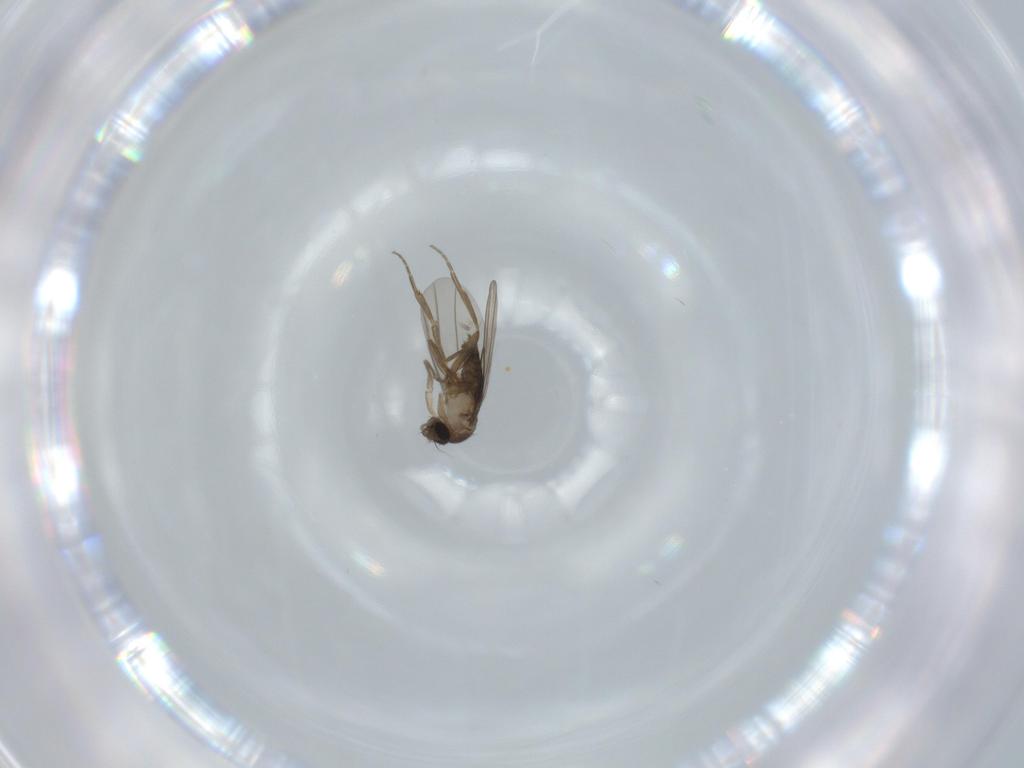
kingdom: Animalia
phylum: Arthropoda
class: Insecta
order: Diptera
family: Phoridae
